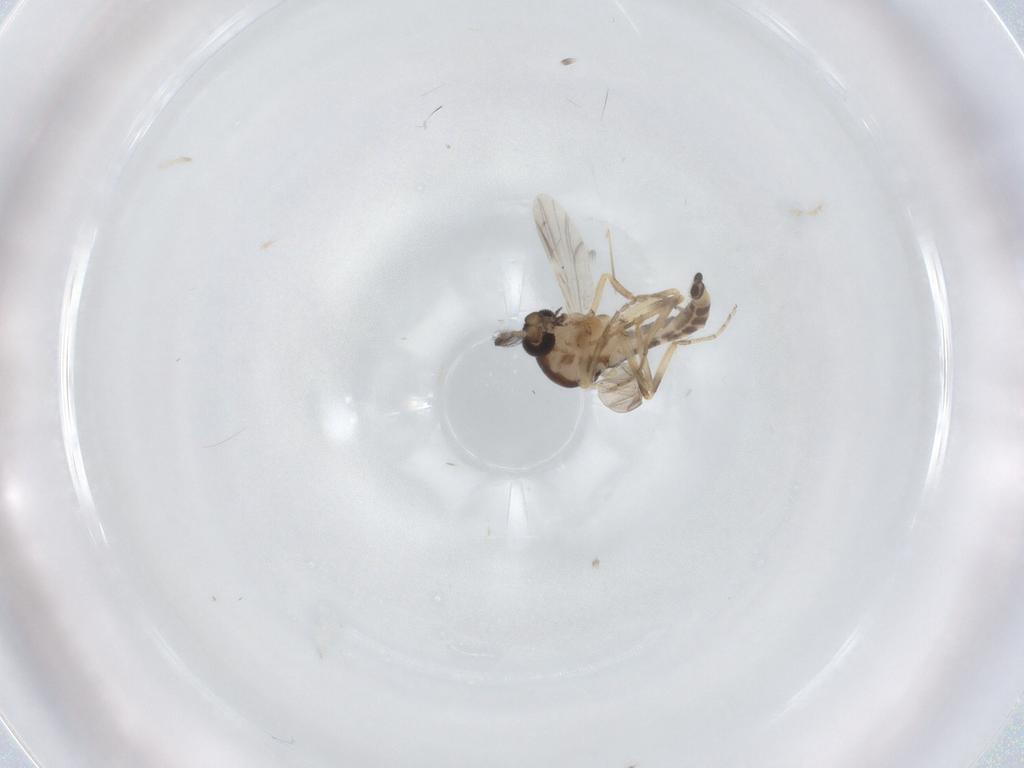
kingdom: Animalia
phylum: Arthropoda
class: Insecta
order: Diptera
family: Ceratopogonidae
